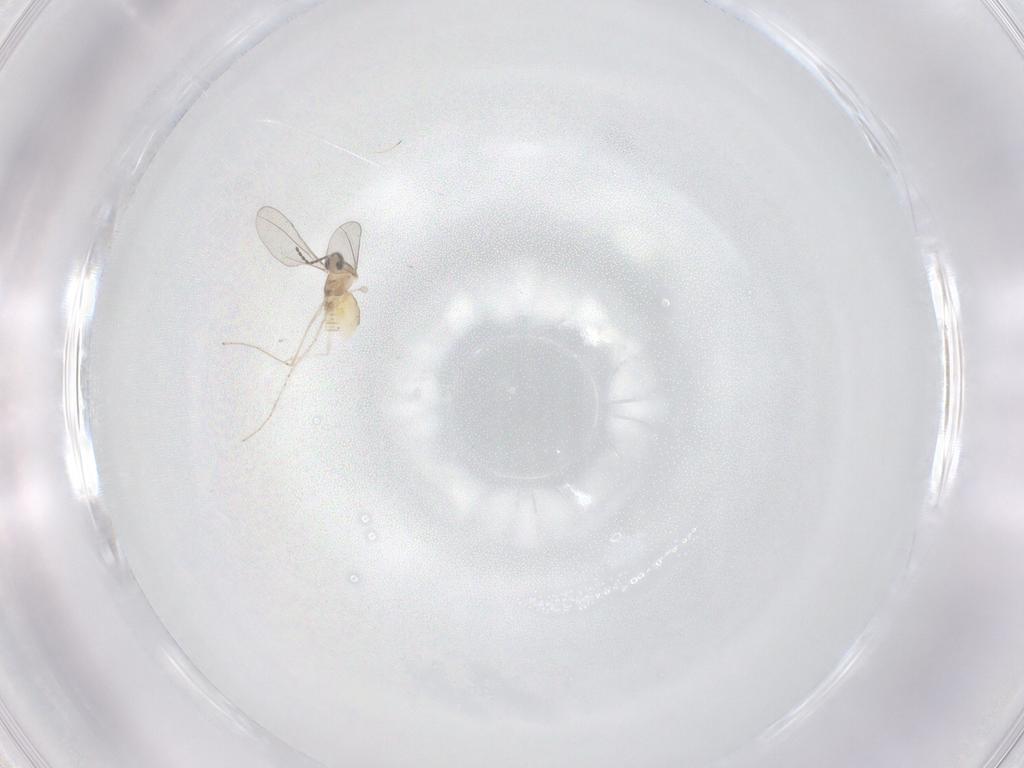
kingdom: Animalia
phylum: Arthropoda
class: Insecta
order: Diptera
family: Cecidomyiidae
